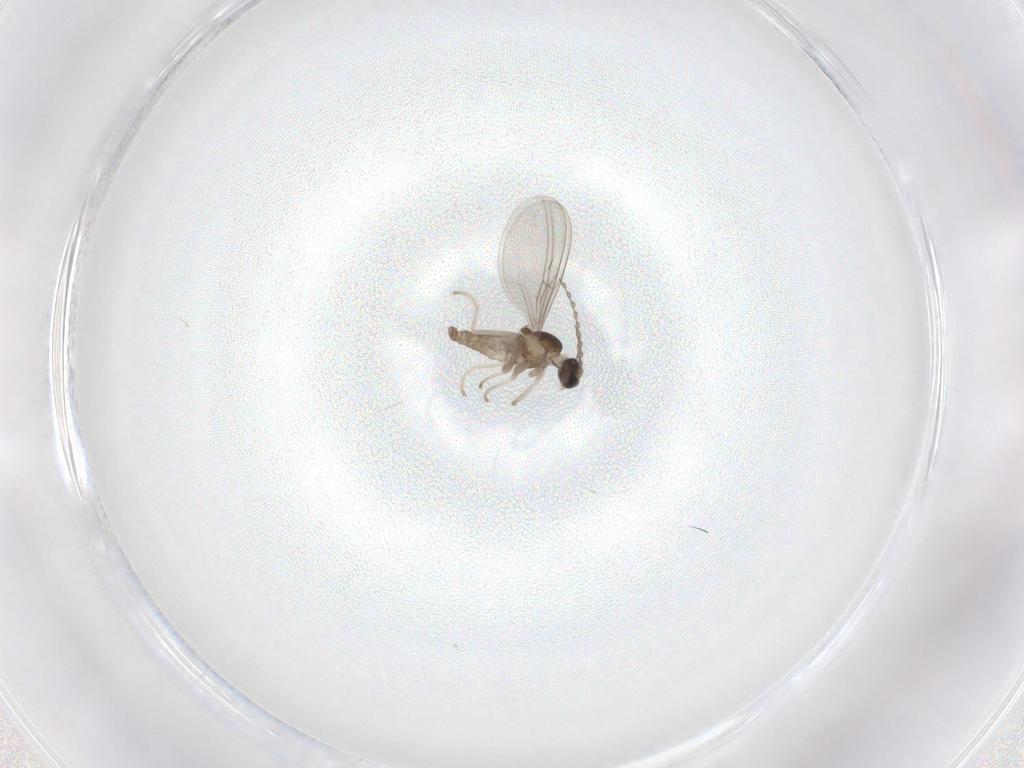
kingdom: Animalia
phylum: Arthropoda
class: Insecta
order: Diptera
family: Cecidomyiidae
